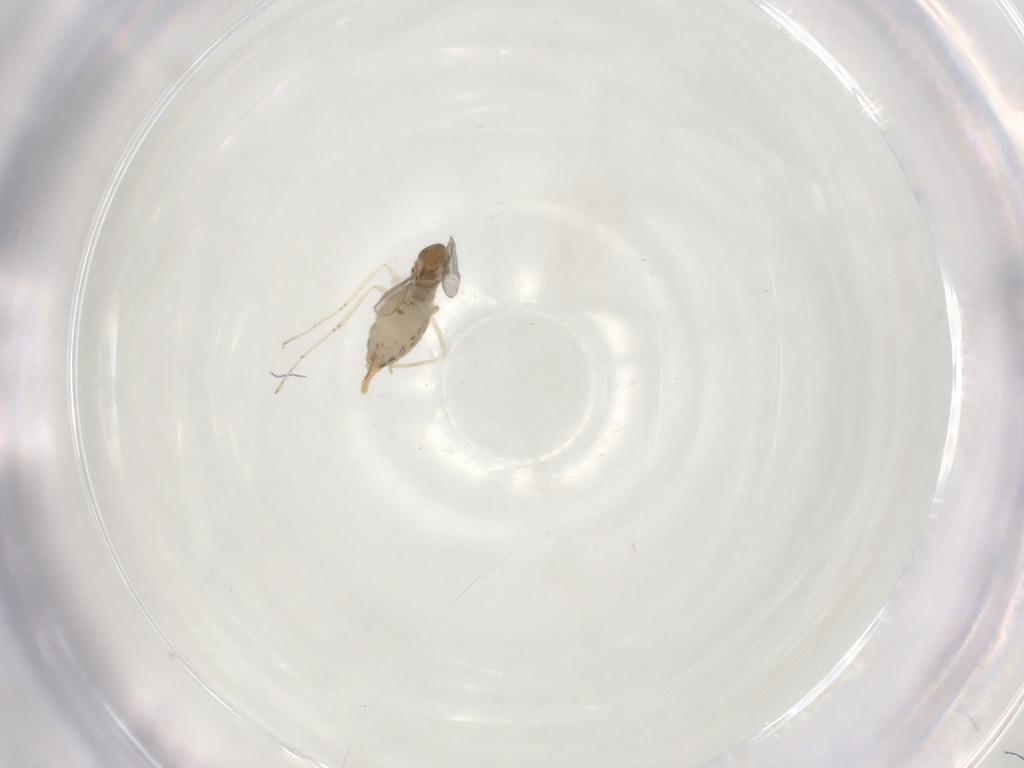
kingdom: Animalia
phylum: Arthropoda
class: Insecta
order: Diptera
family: Cecidomyiidae
